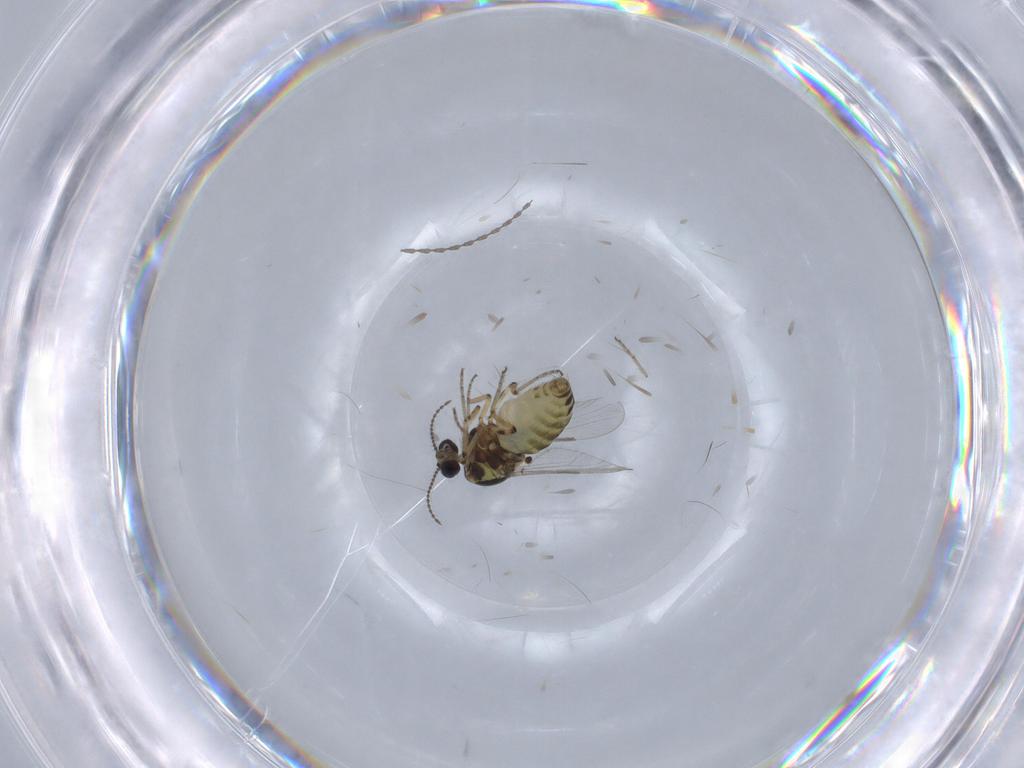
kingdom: Animalia
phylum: Arthropoda
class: Insecta
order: Diptera
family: Cecidomyiidae
